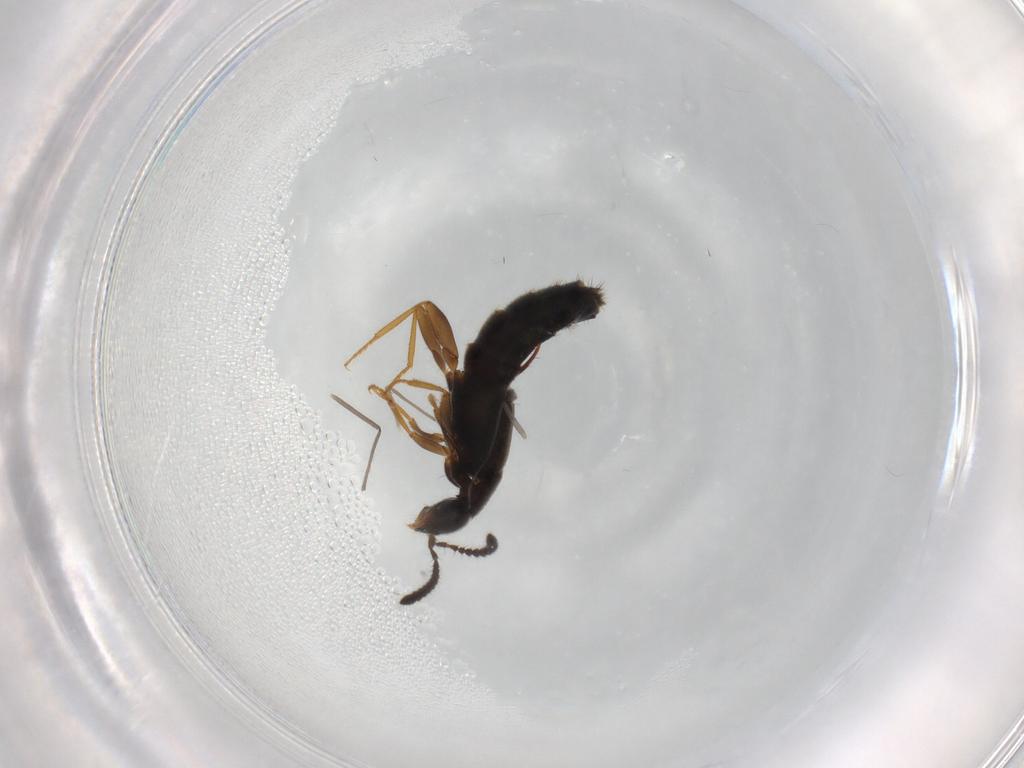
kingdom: Animalia
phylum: Arthropoda
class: Insecta
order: Coleoptera
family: Staphylinidae
